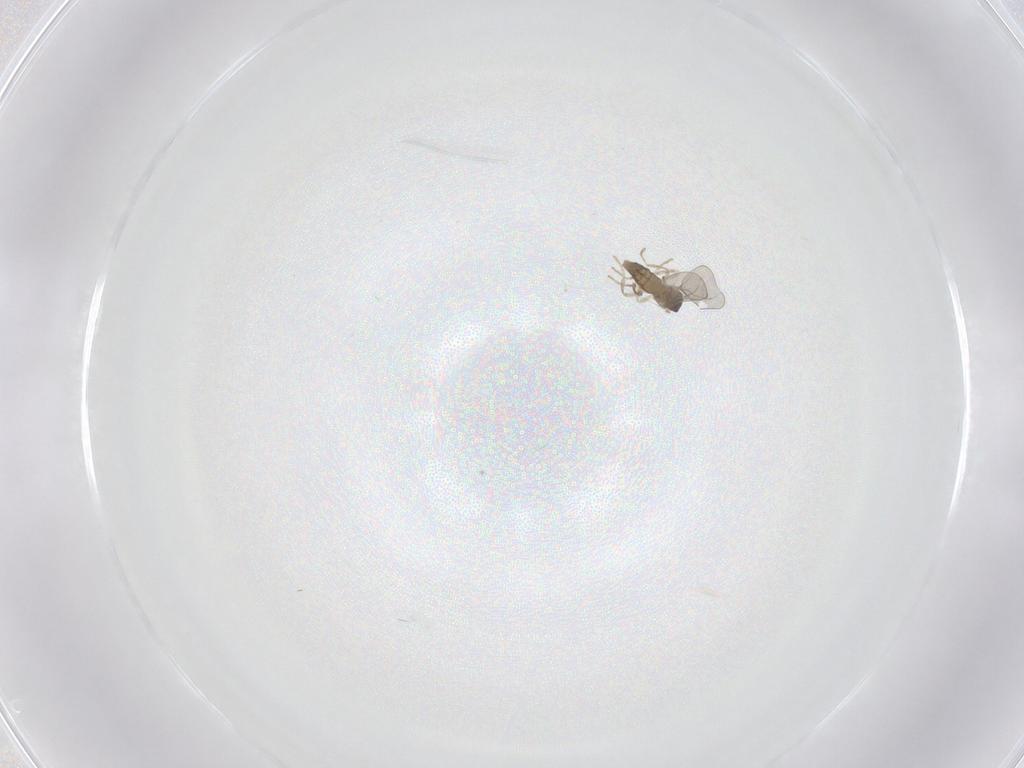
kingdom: Animalia
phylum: Arthropoda
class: Insecta
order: Diptera
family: Cecidomyiidae
